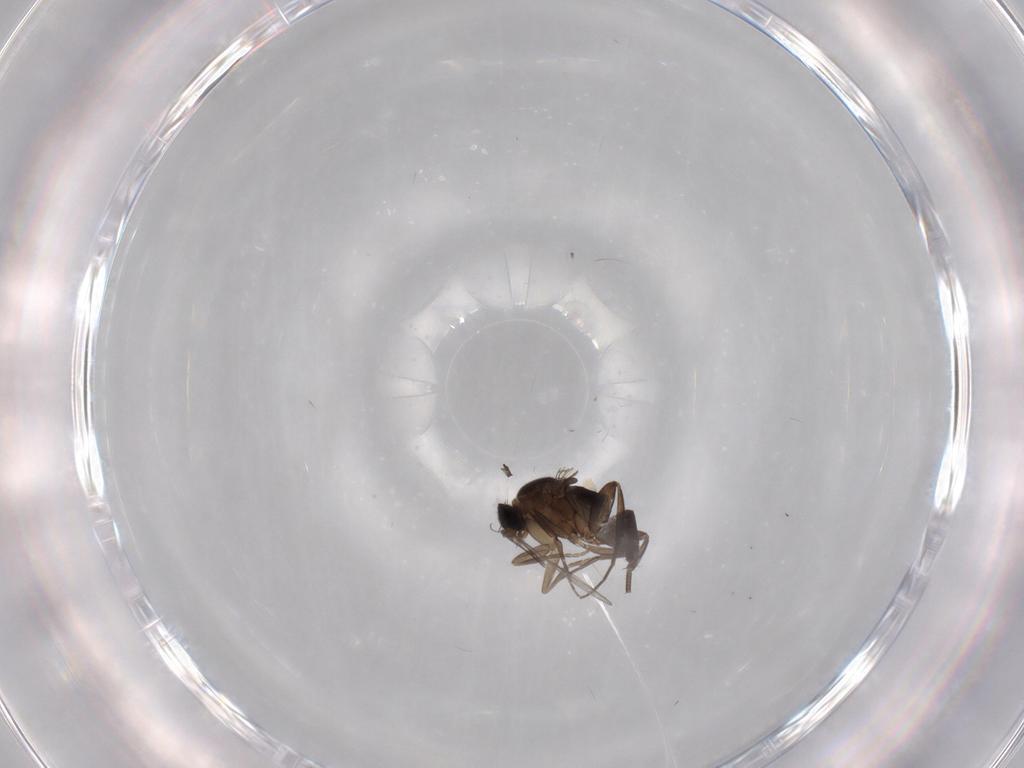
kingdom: Animalia
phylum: Arthropoda
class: Insecta
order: Diptera
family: Phoridae
